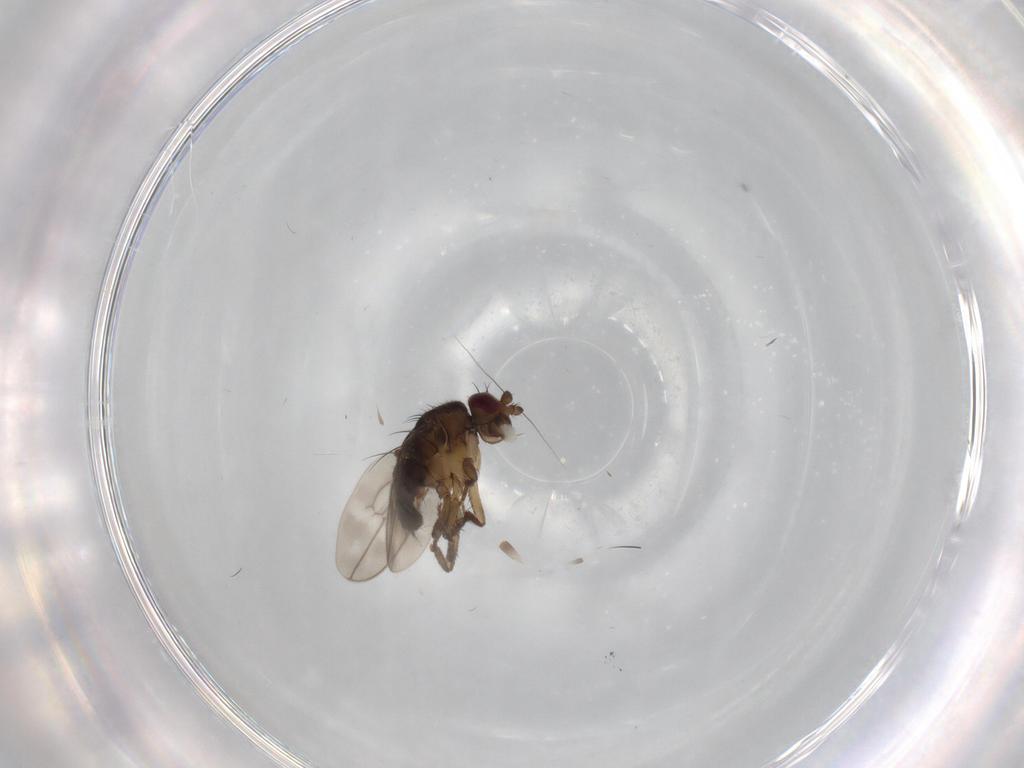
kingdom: Animalia
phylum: Arthropoda
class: Insecta
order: Diptera
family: Sphaeroceridae
